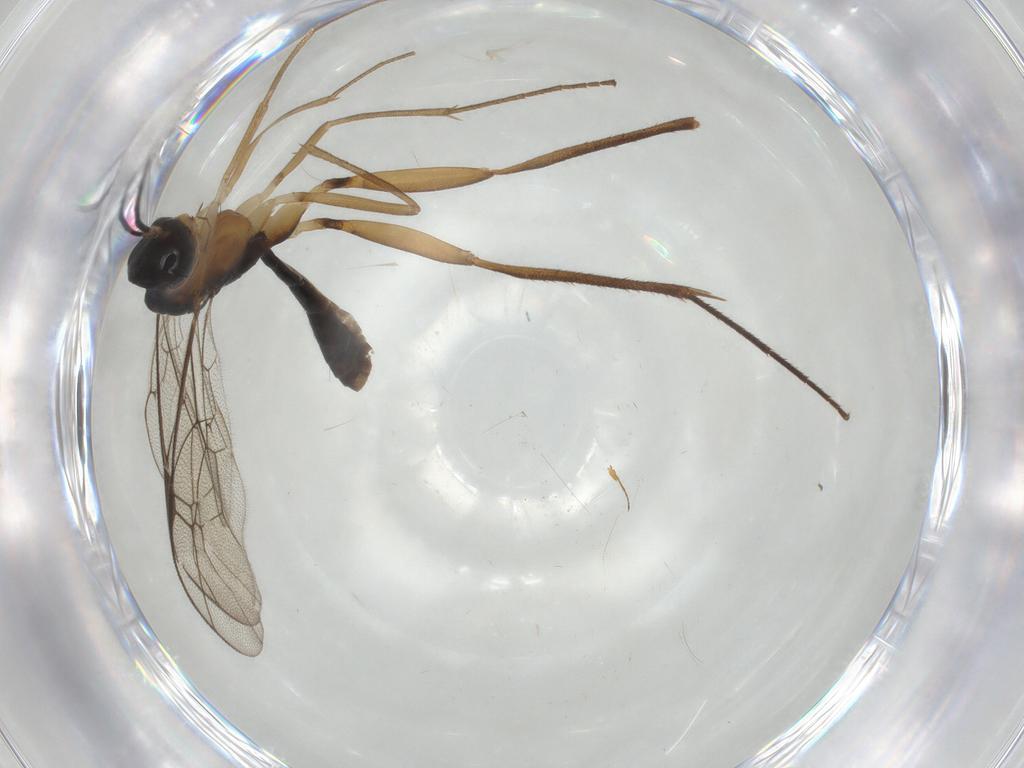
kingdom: Animalia
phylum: Arthropoda
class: Insecta
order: Hymenoptera
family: Ichneumonidae
